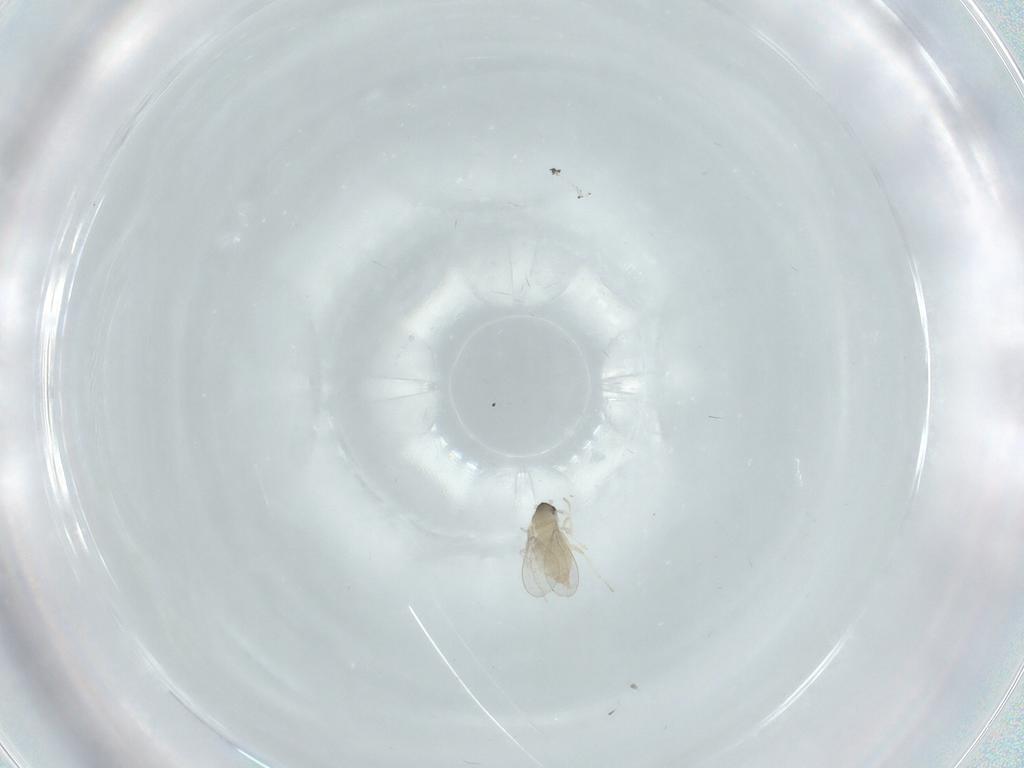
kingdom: Animalia
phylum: Arthropoda
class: Insecta
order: Diptera
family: Cecidomyiidae
